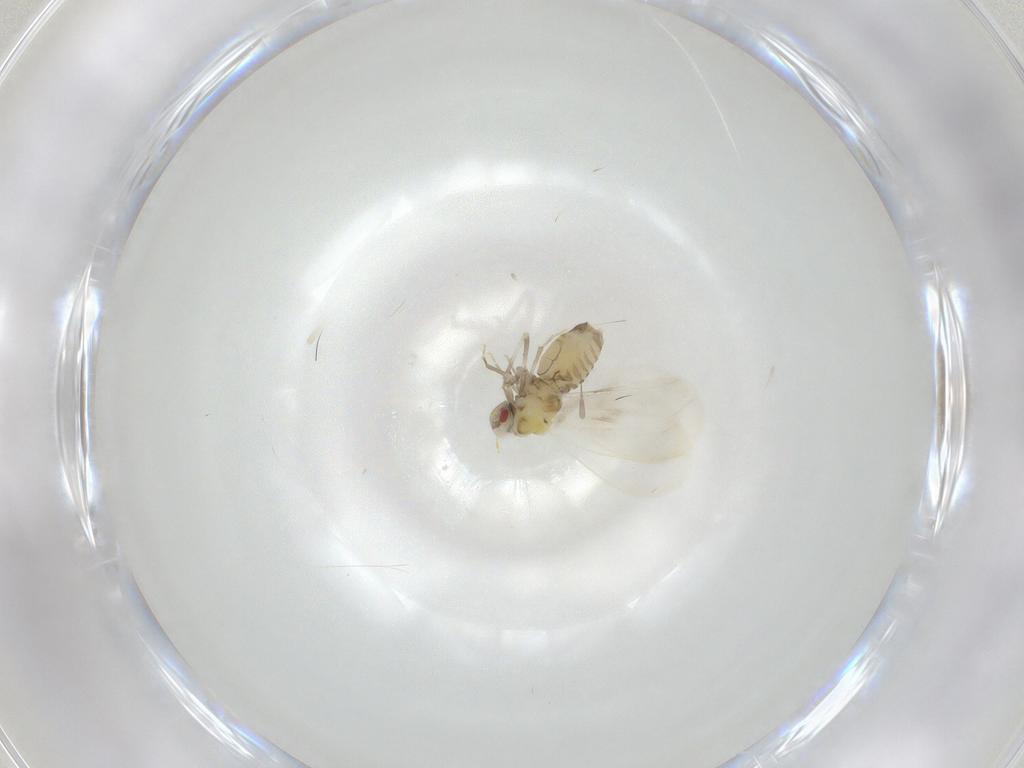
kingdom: Animalia
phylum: Arthropoda
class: Insecta
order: Hemiptera
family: Aleyrodidae
